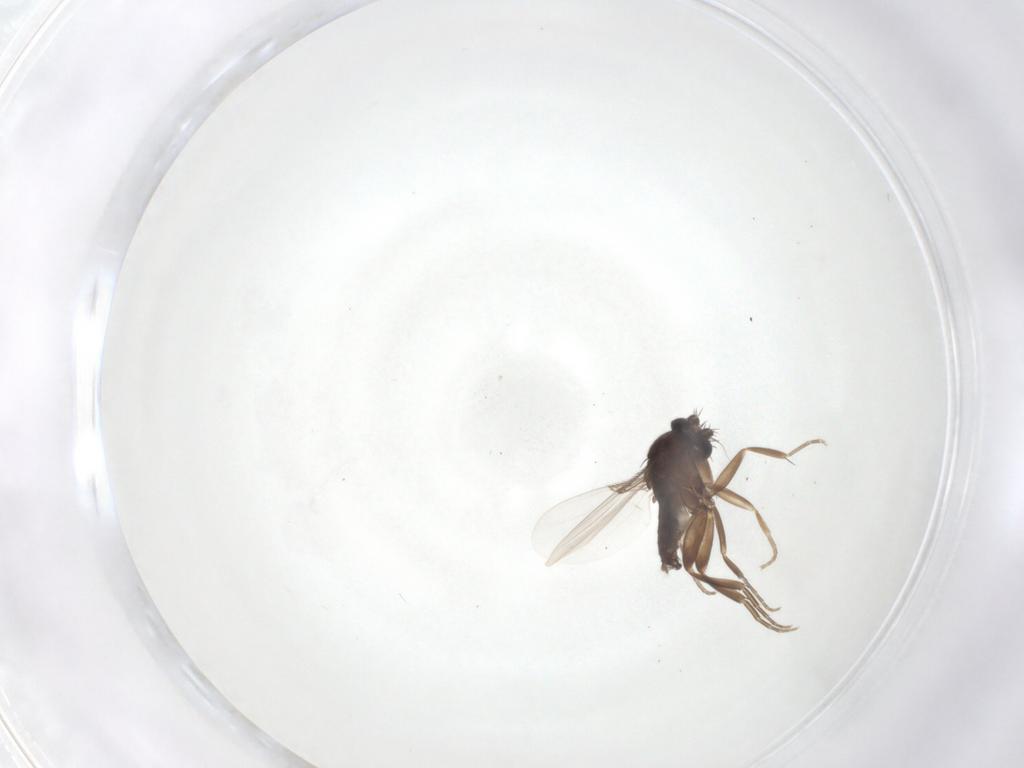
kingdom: Animalia
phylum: Arthropoda
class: Insecta
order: Diptera
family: Phoridae
